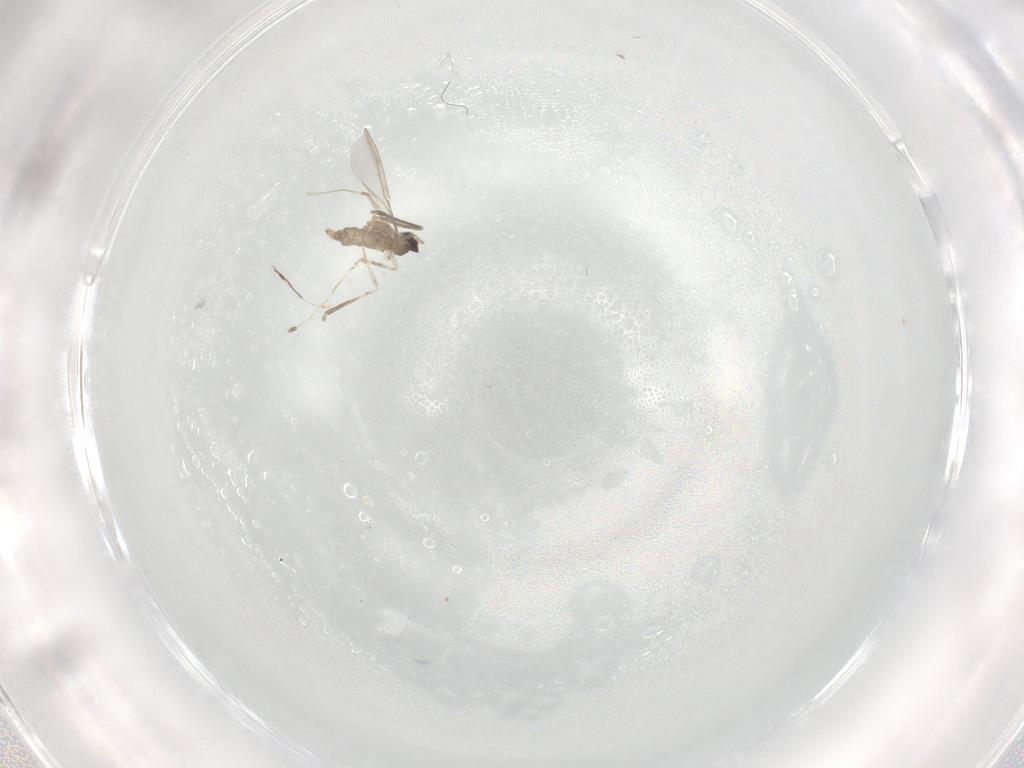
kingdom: Animalia
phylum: Arthropoda
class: Insecta
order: Diptera
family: Cecidomyiidae
